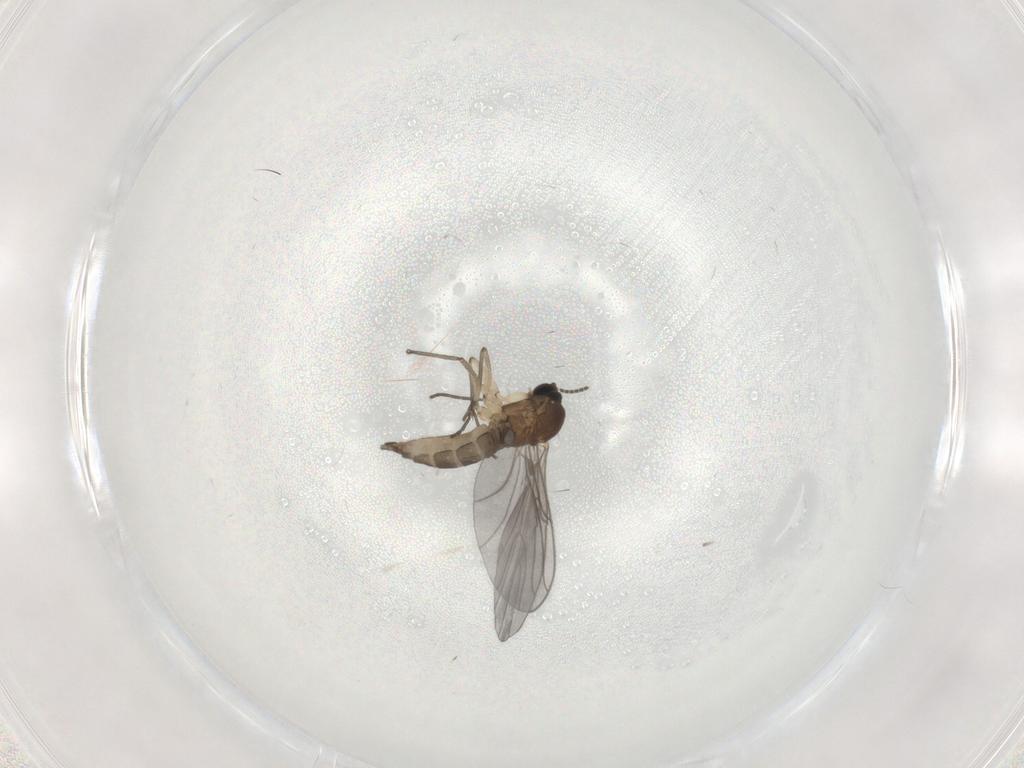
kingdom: Animalia
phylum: Arthropoda
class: Insecta
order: Diptera
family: Sciaridae
